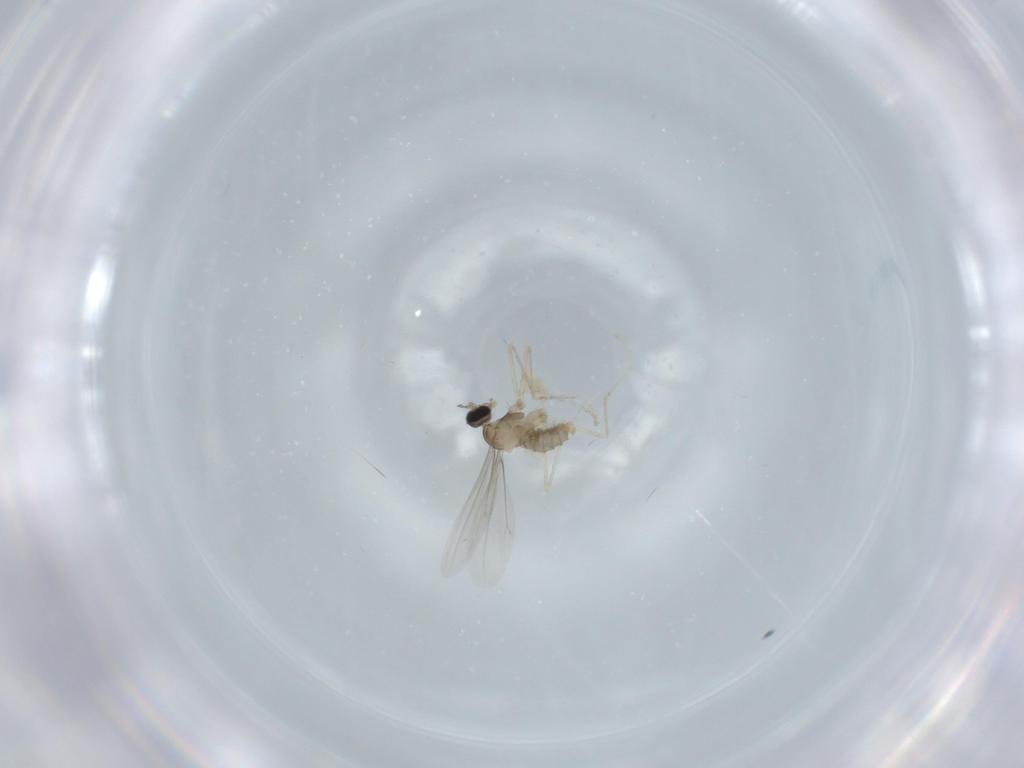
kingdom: Animalia
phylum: Arthropoda
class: Insecta
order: Diptera
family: Cecidomyiidae
